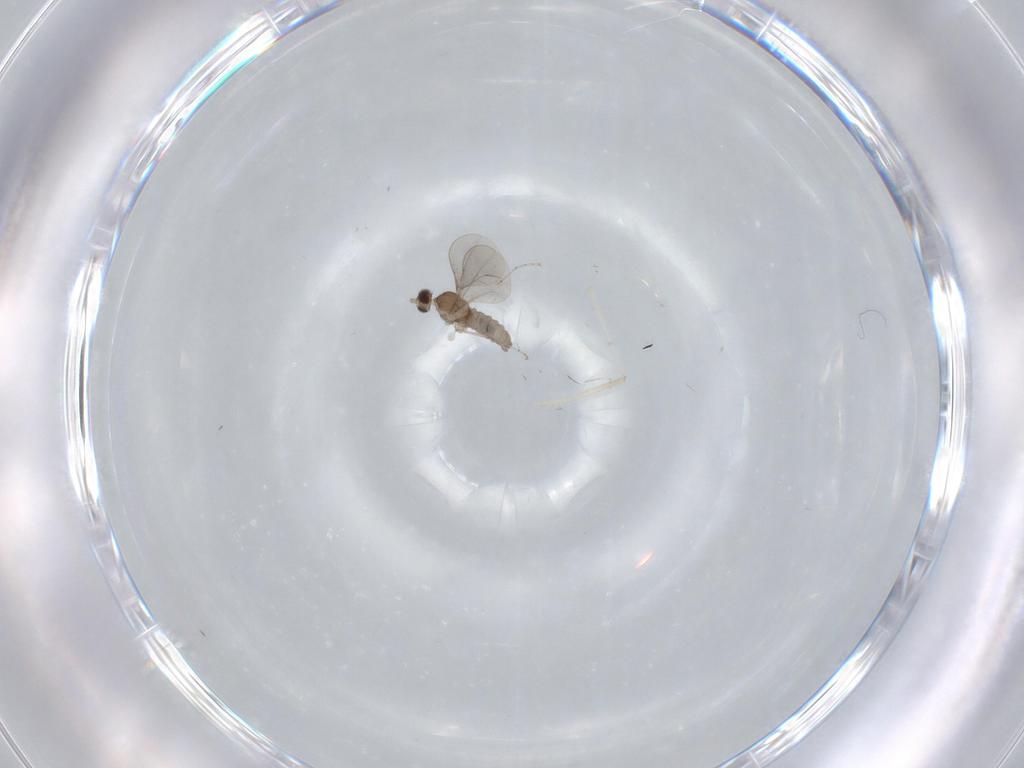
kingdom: Animalia
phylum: Arthropoda
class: Insecta
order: Diptera
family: Cecidomyiidae
